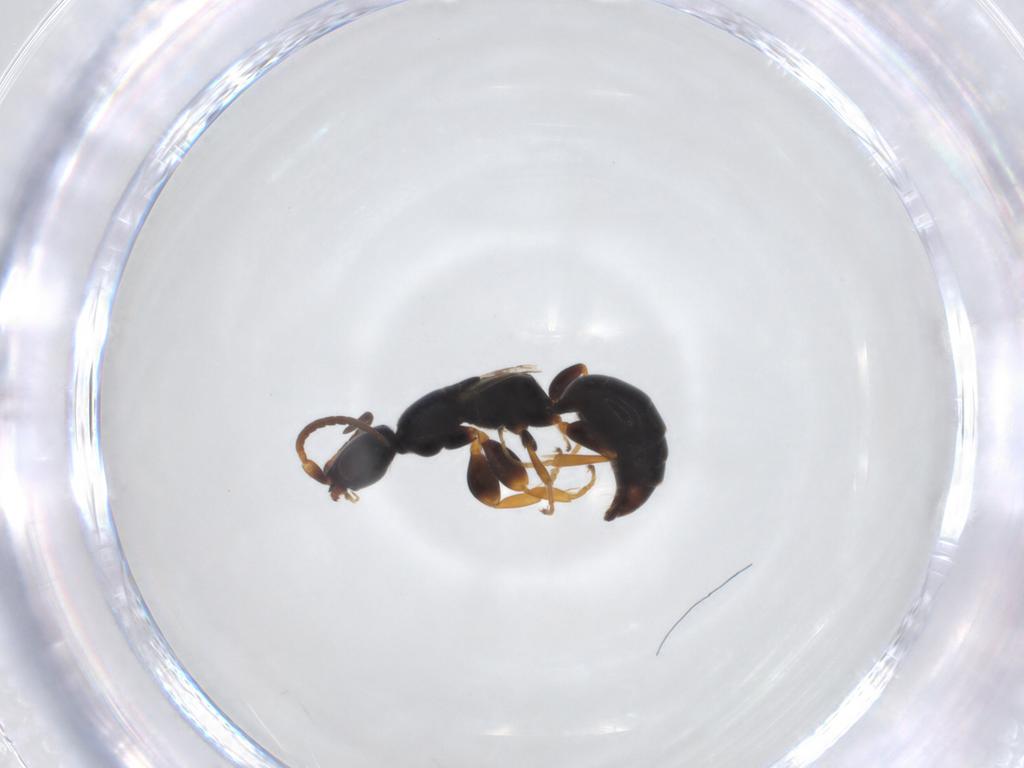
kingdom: Animalia
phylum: Arthropoda
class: Insecta
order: Hymenoptera
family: Bethylidae
